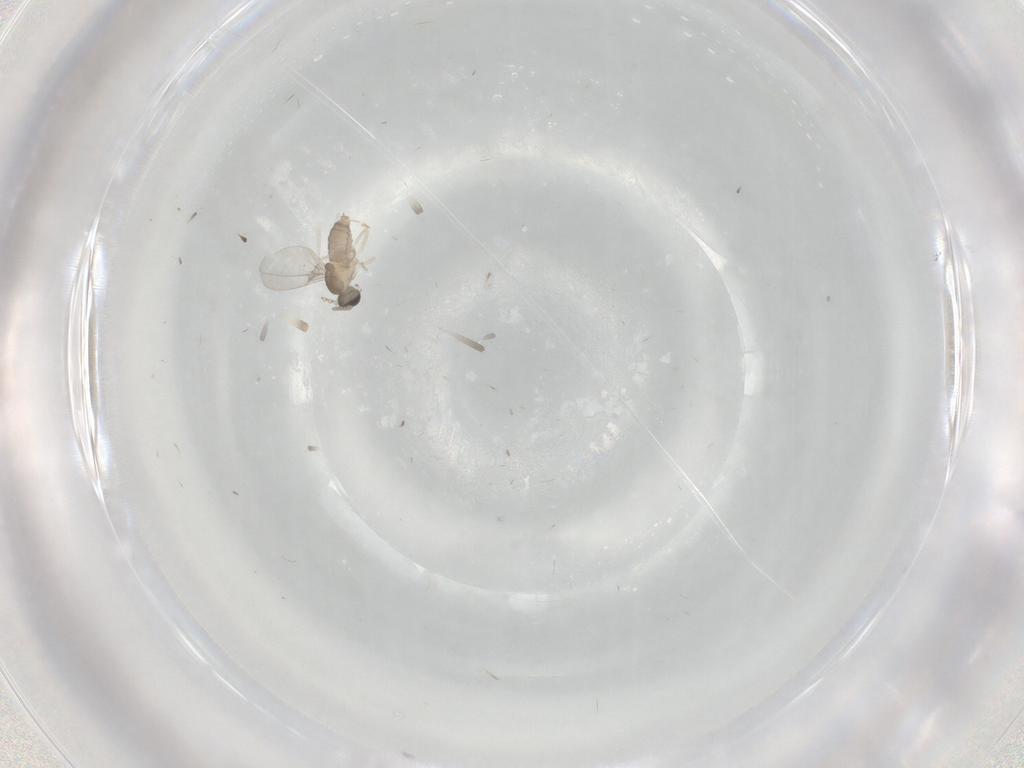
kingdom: Animalia
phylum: Arthropoda
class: Insecta
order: Diptera
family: Cecidomyiidae
